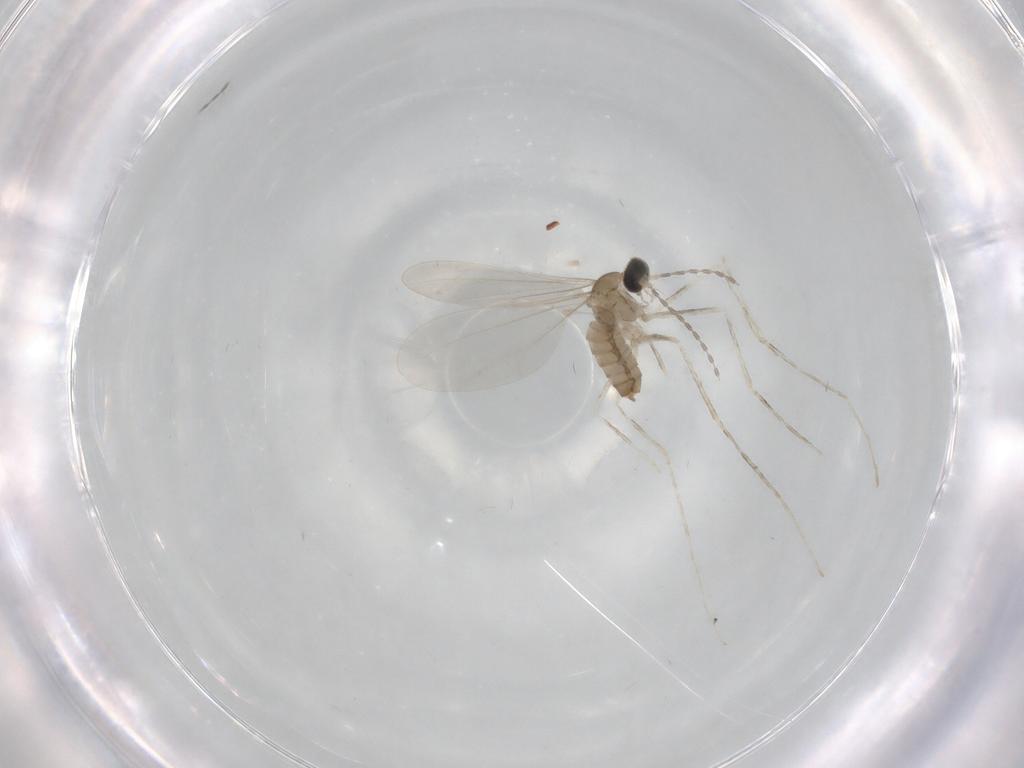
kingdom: Animalia
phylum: Arthropoda
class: Insecta
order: Diptera
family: Cecidomyiidae
